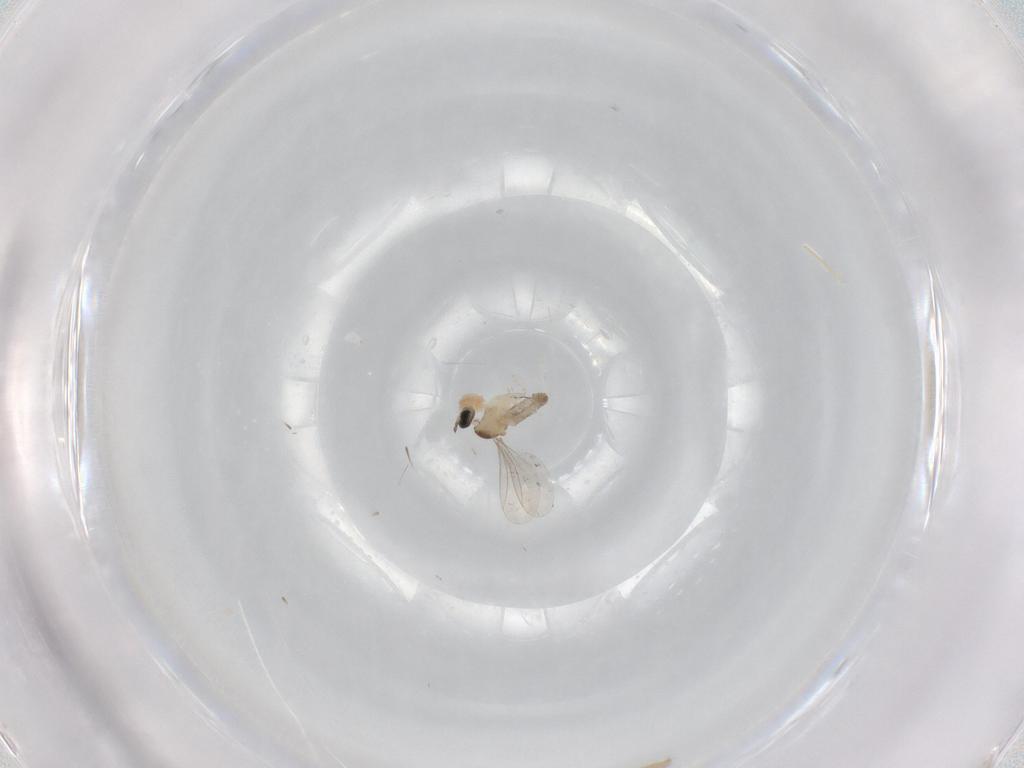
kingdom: Animalia
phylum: Arthropoda
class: Insecta
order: Diptera
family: Cecidomyiidae
